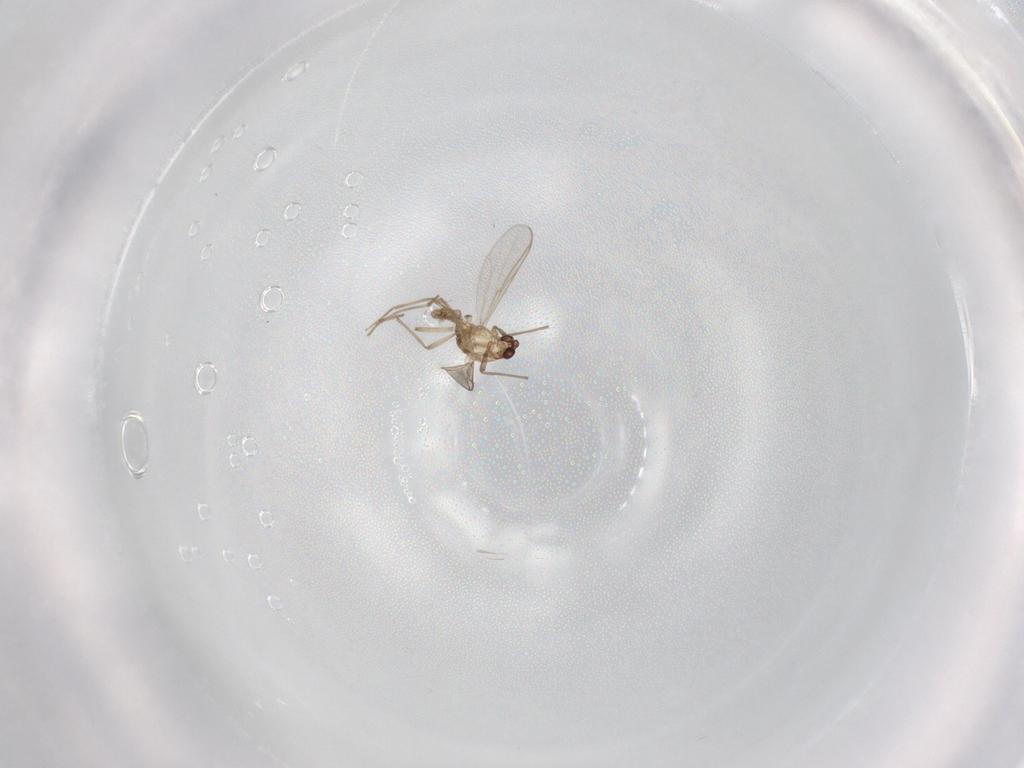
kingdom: Animalia
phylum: Arthropoda
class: Insecta
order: Diptera
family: Ceratopogonidae
